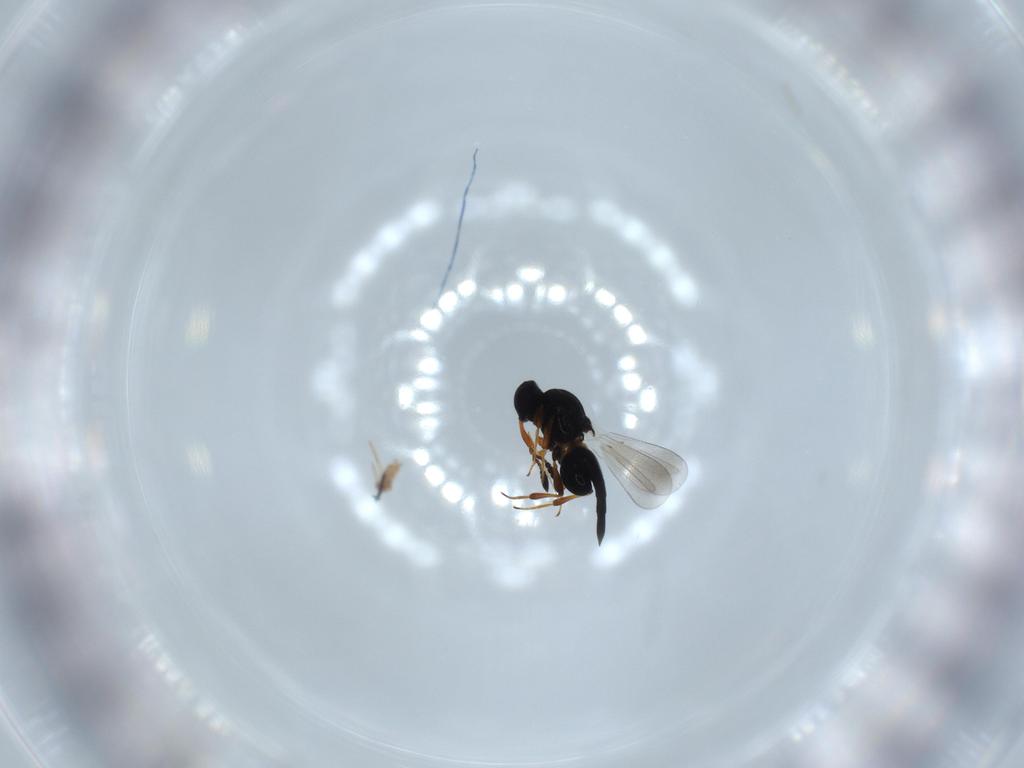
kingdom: Animalia
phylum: Arthropoda
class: Insecta
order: Hymenoptera
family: Platygastridae
